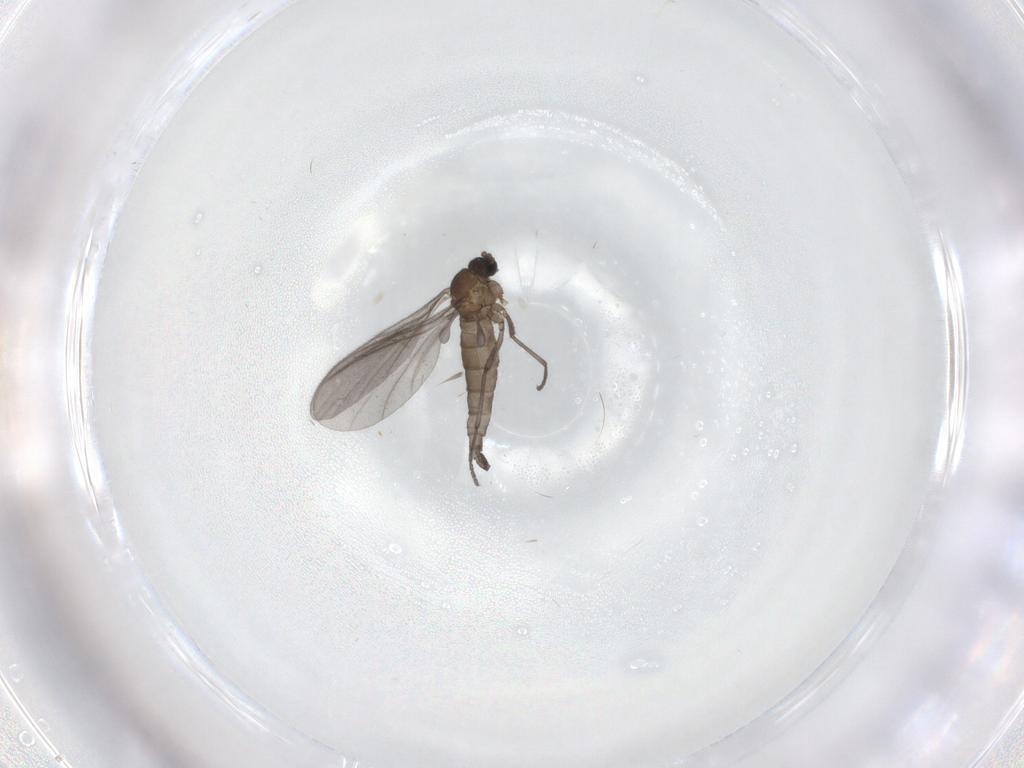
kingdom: Animalia
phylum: Arthropoda
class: Insecta
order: Diptera
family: Sciaridae
